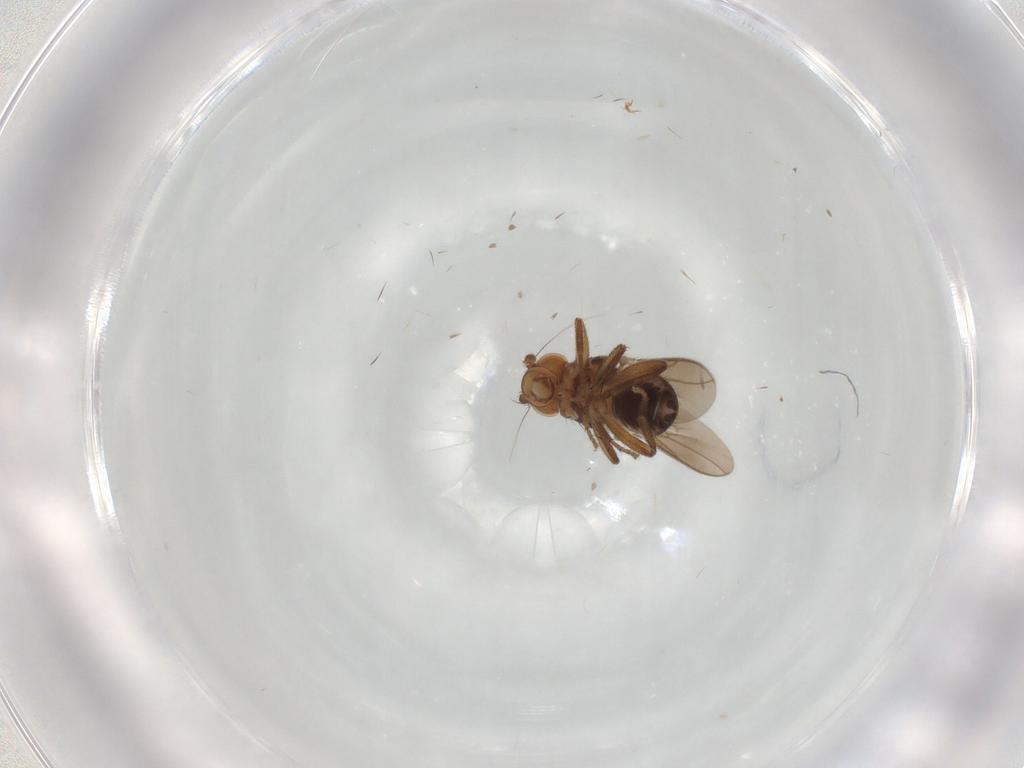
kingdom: Animalia
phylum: Arthropoda
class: Insecta
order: Diptera
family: Sphaeroceridae
